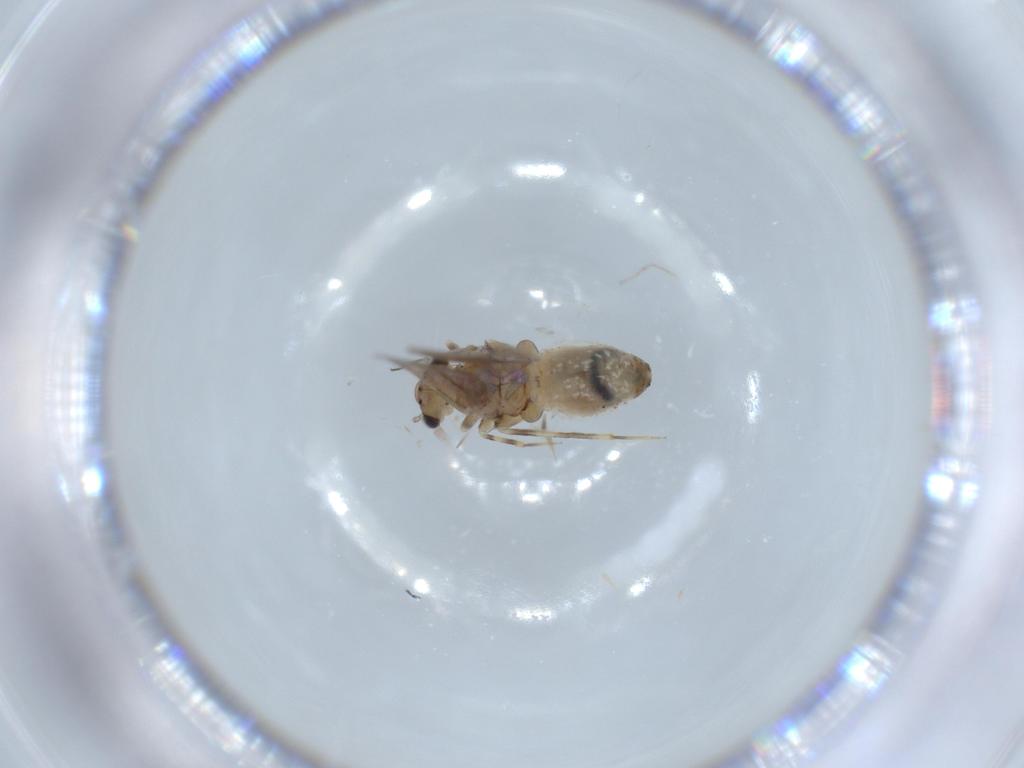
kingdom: Animalia
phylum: Arthropoda
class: Insecta
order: Psocodea
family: Lepidopsocidae
